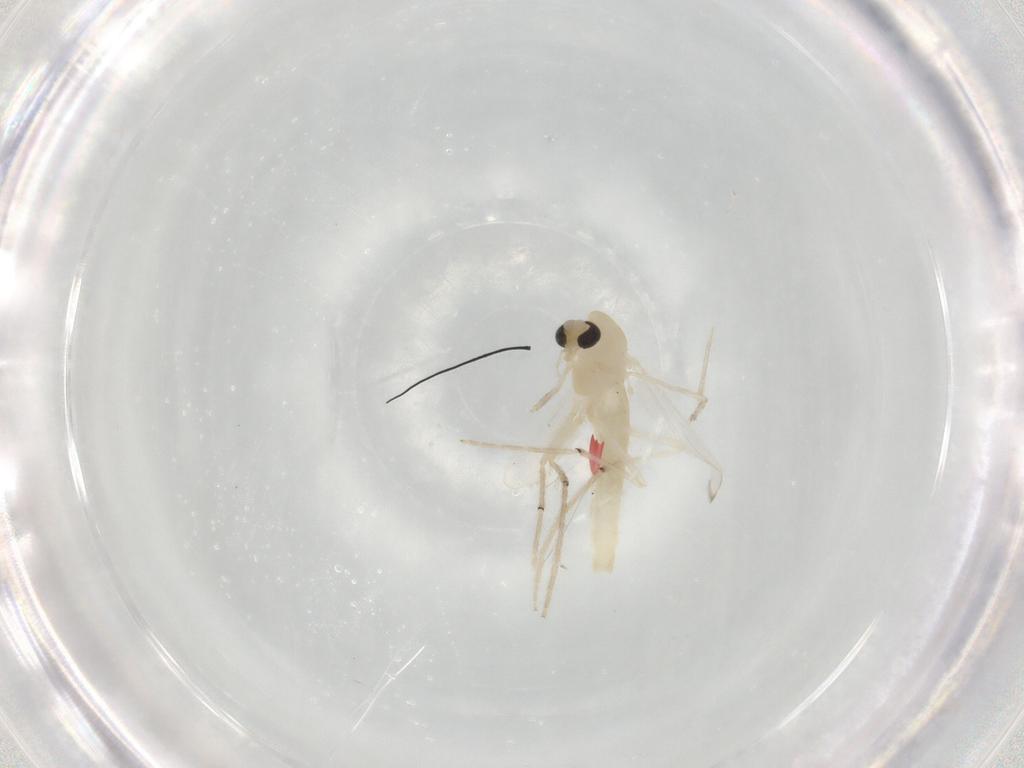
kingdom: Animalia
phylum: Arthropoda
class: Insecta
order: Diptera
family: Chironomidae
